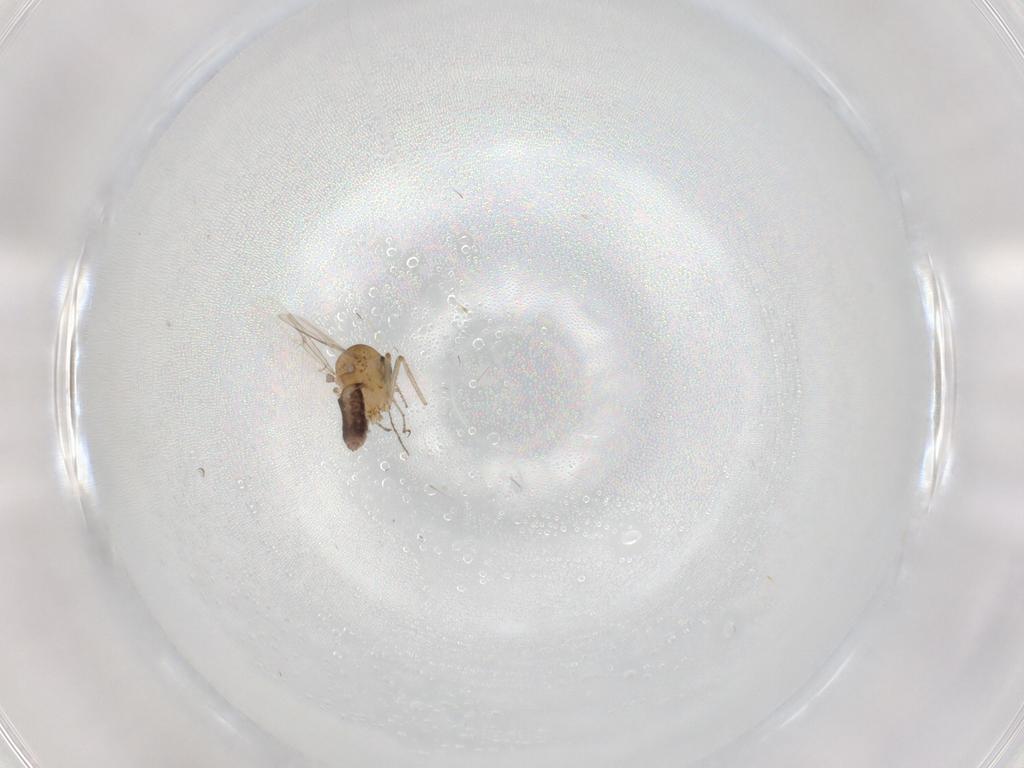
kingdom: Animalia
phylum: Arthropoda
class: Insecta
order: Diptera
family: Ceratopogonidae
